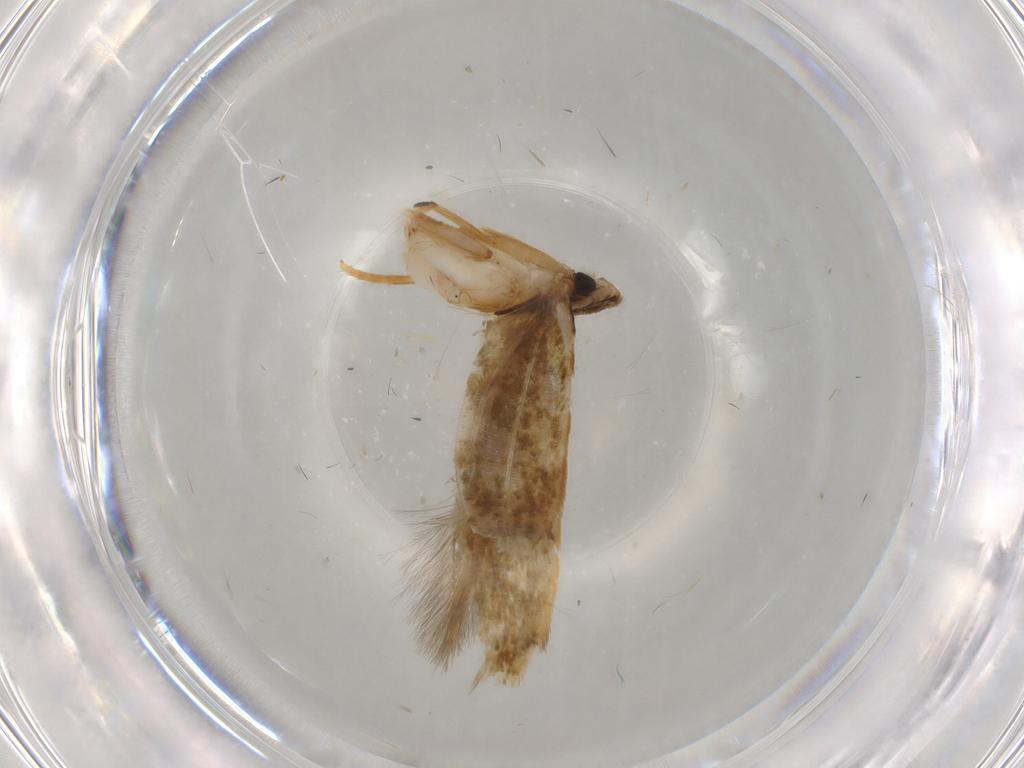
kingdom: Animalia
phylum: Arthropoda
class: Insecta
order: Lepidoptera
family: Tineidae
